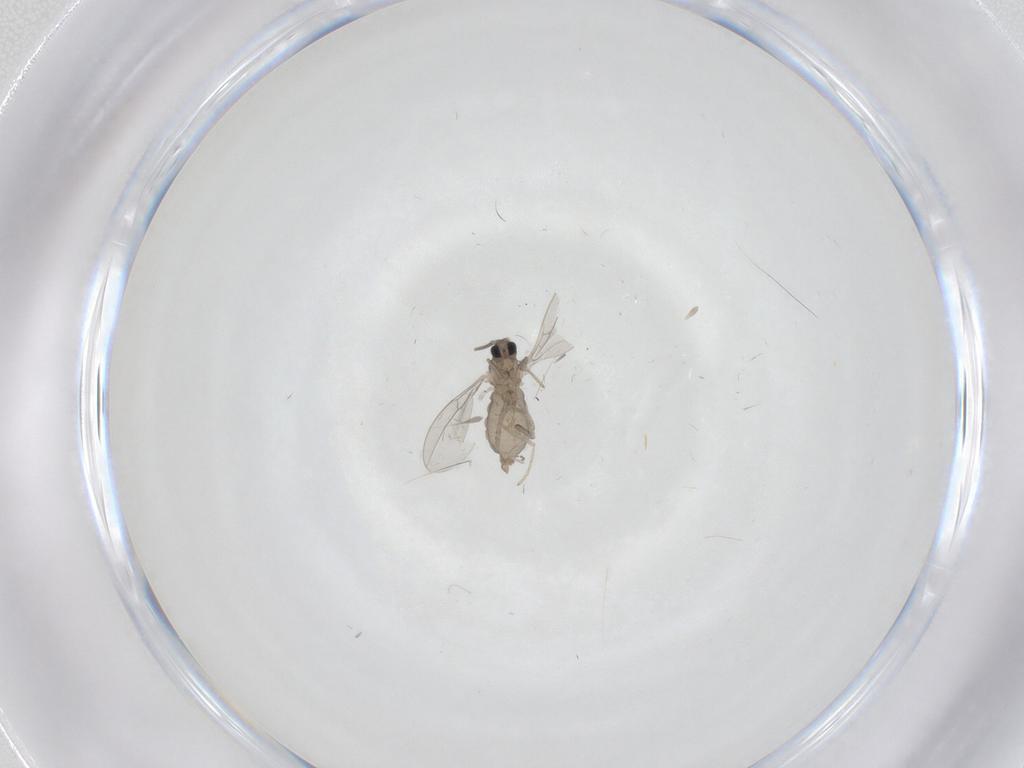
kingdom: Animalia
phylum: Arthropoda
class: Insecta
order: Diptera
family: Cecidomyiidae
